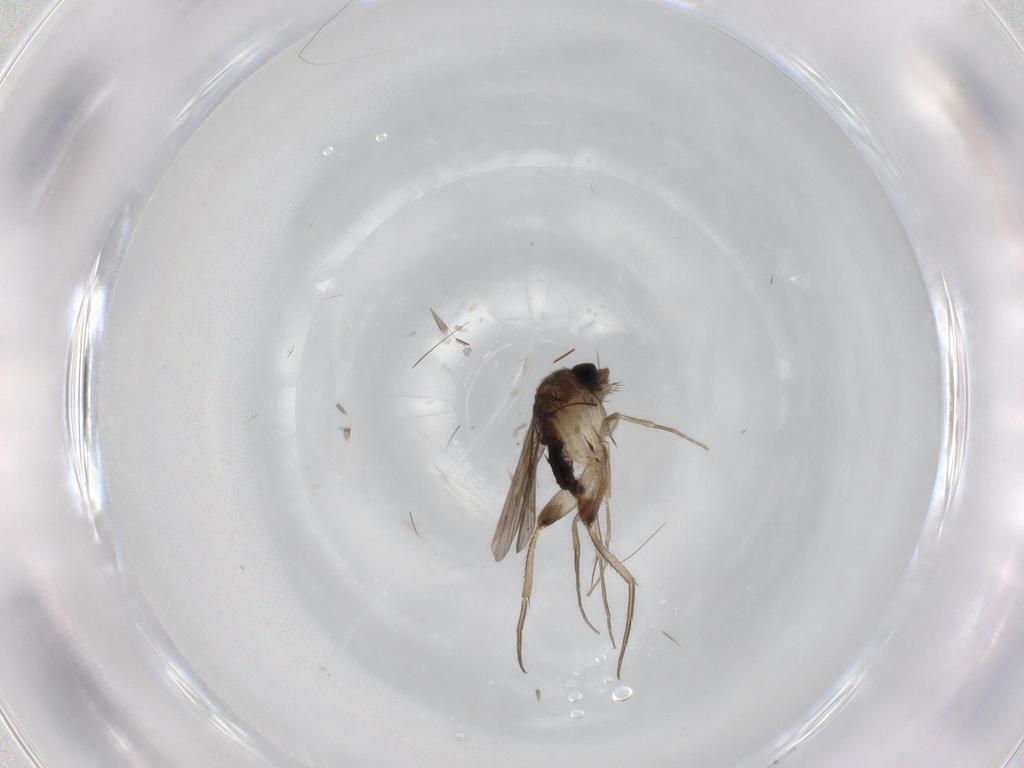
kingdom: Animalia
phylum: Arthropoda
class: Insecta
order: Diptera
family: Phoridae
